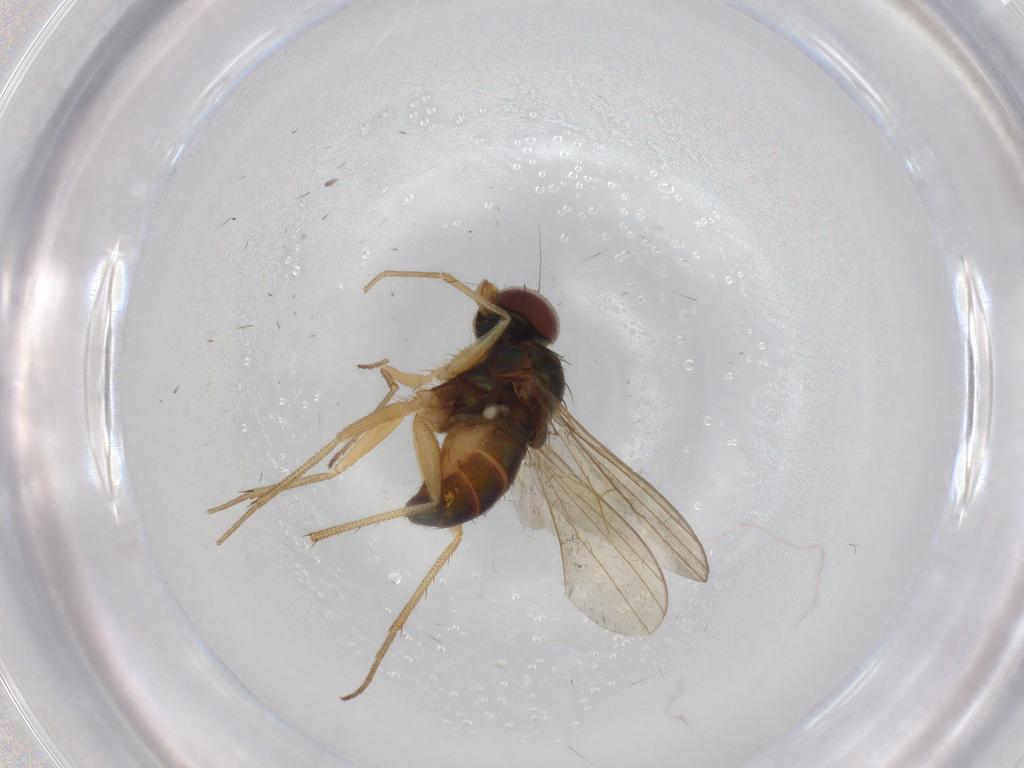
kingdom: Animalia
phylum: Arthropoda
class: Insecta
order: Diptera
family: Dolichopodidae
